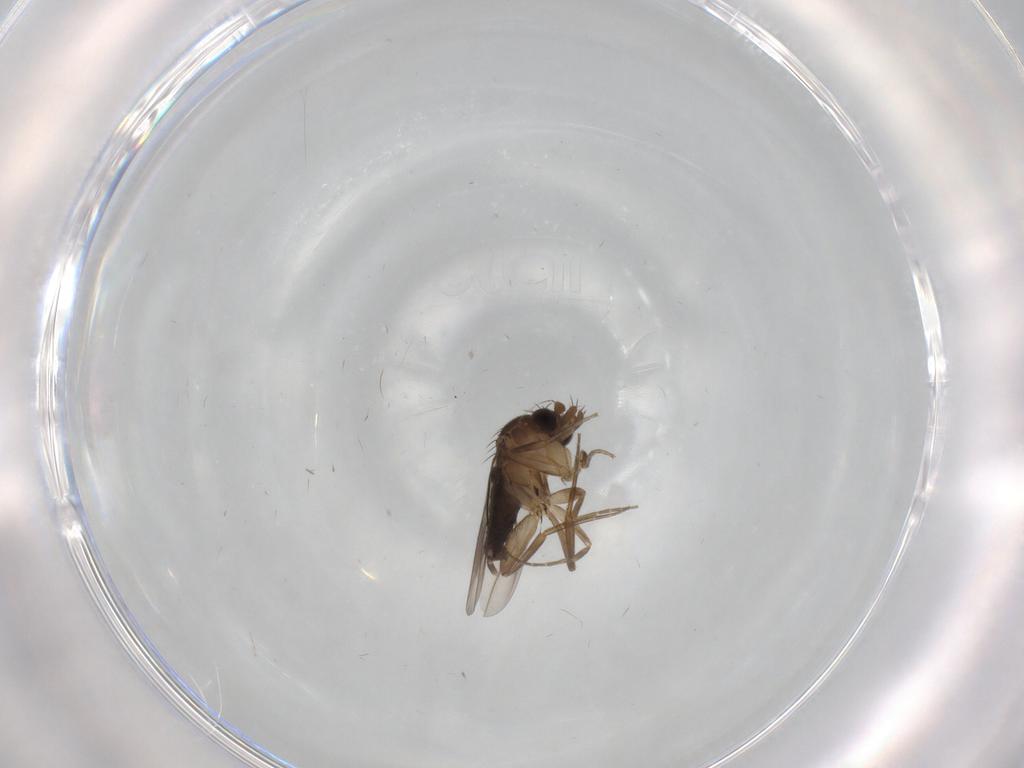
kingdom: Animalia
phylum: Arthropoda
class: Insecta
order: Diptera
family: Phoridae
